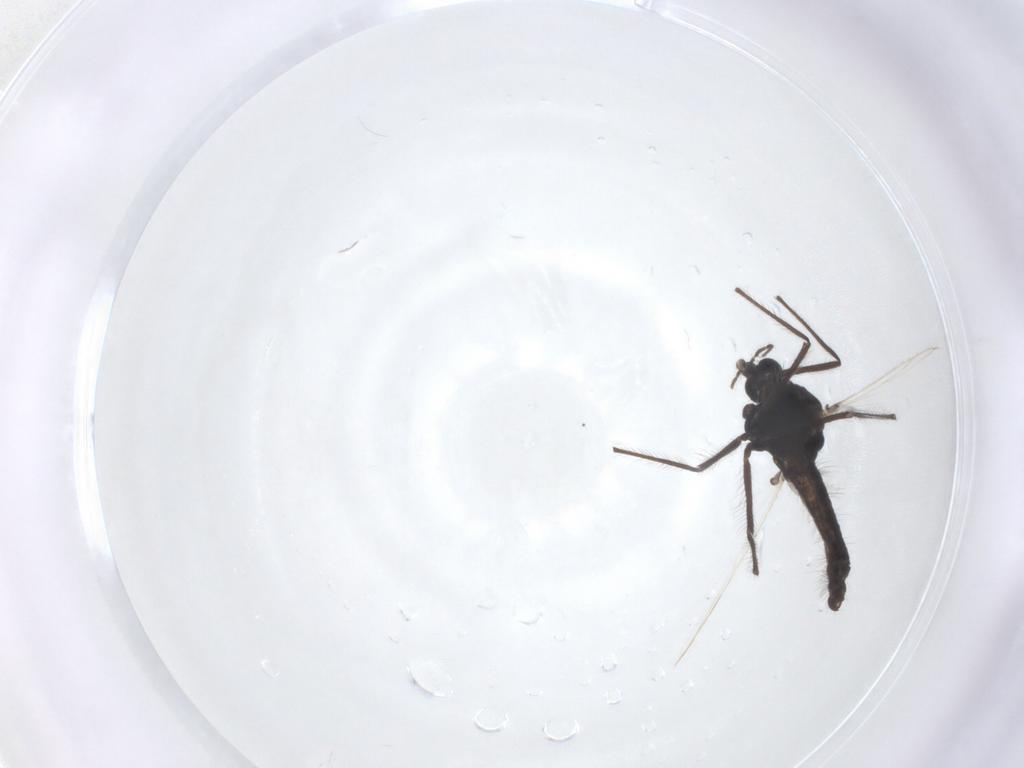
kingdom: Animalia
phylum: Arthropoda
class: Insecta
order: Diptera
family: Chironomidae
